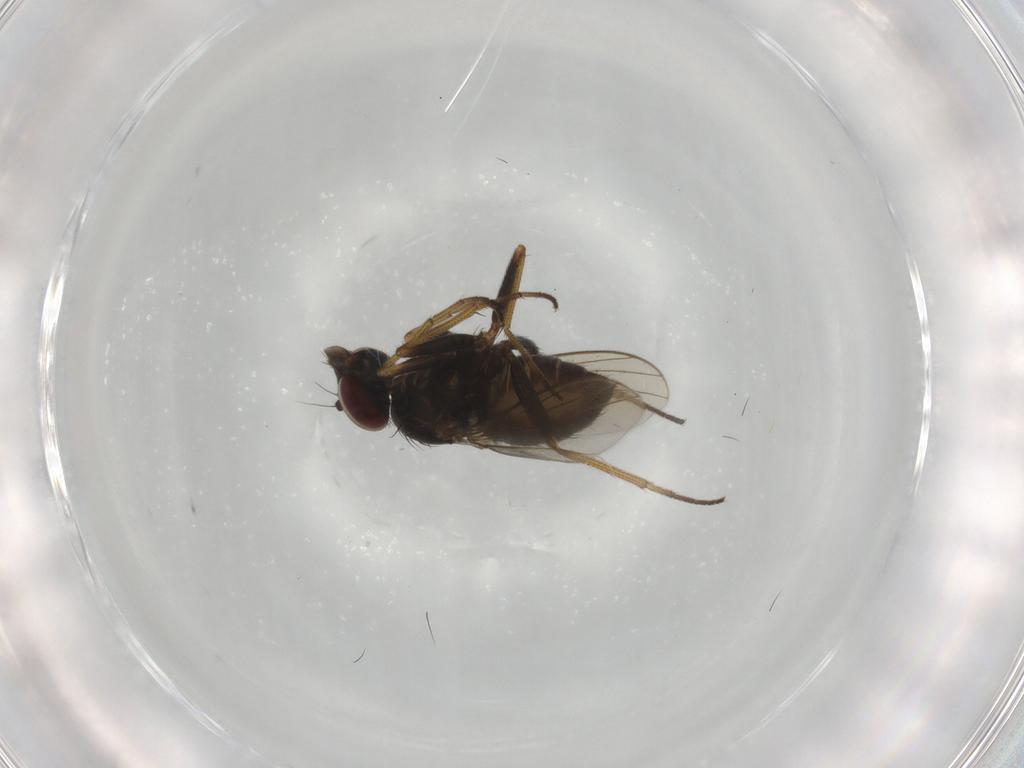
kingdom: Animalia
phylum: Arthropoda
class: Insecta
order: Diptera
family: Dolichopodidae
